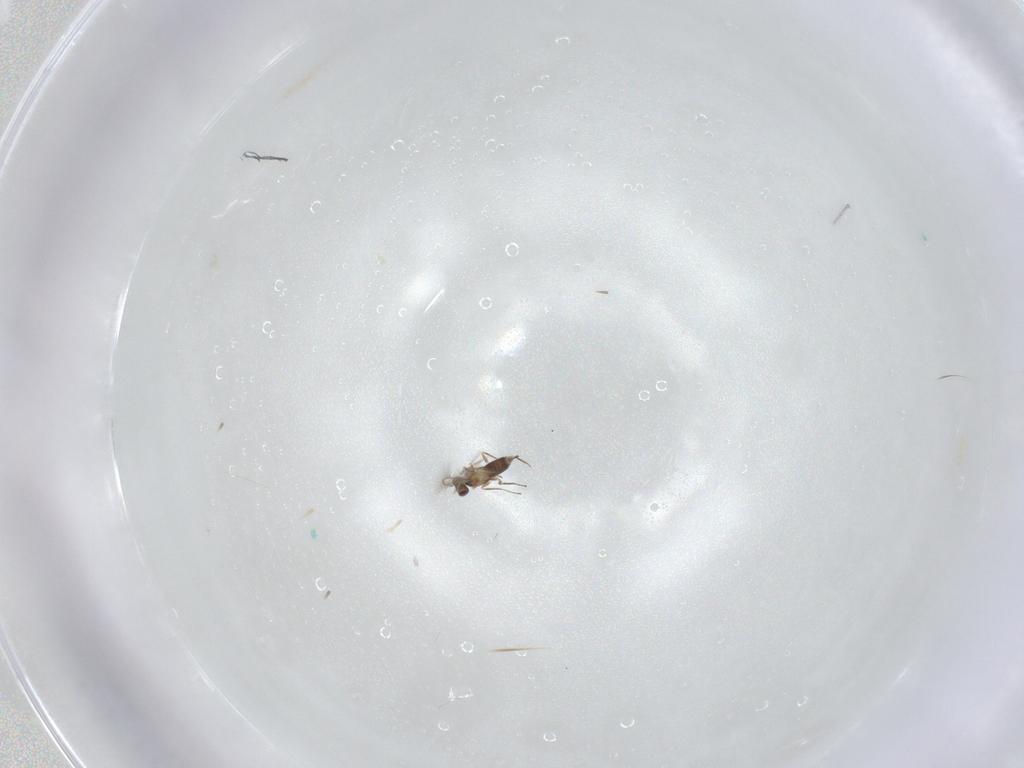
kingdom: Animalia
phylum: Arthropoda
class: Insecta
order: Hymenoptera
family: Mymaridae
